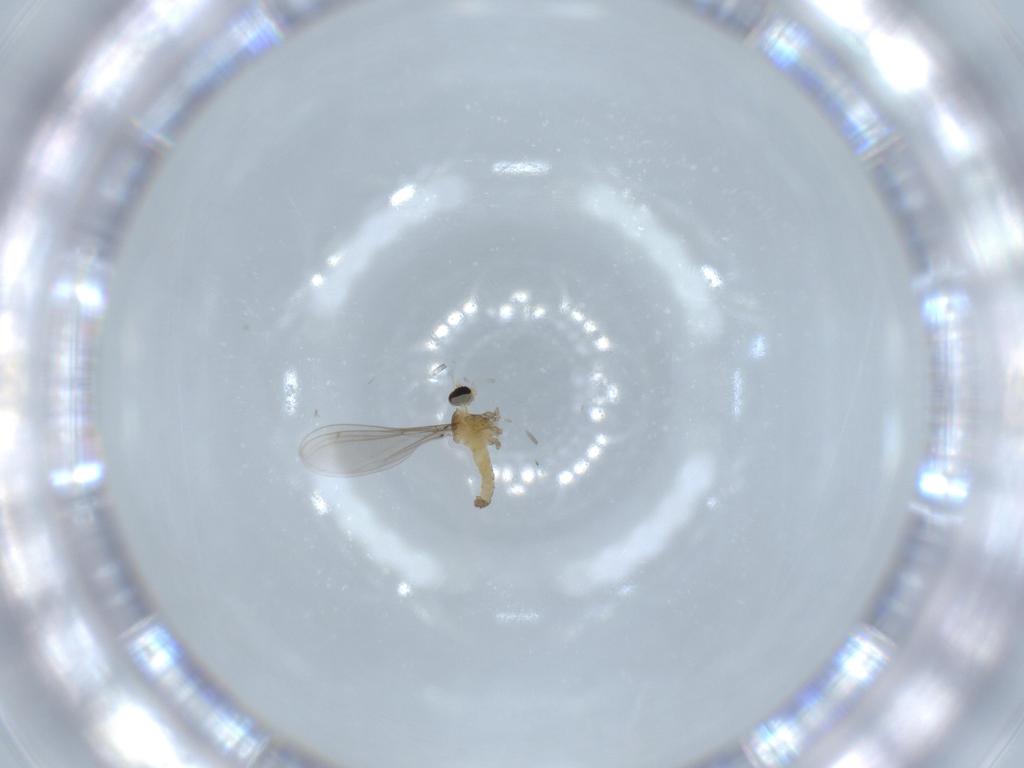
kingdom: Animalia
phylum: Arthropoda
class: Insecta
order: Diptera
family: Cecidomyiidae
